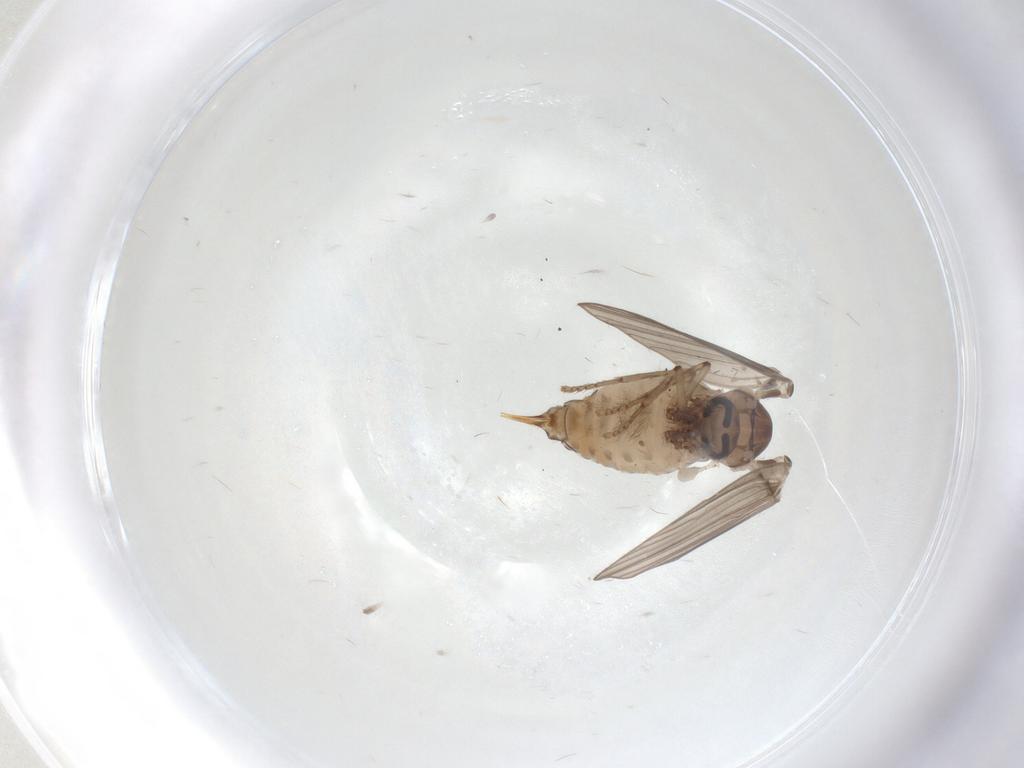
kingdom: Animalia
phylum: Arthropoda
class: Insecta
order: Diptera
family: Psychodidae
